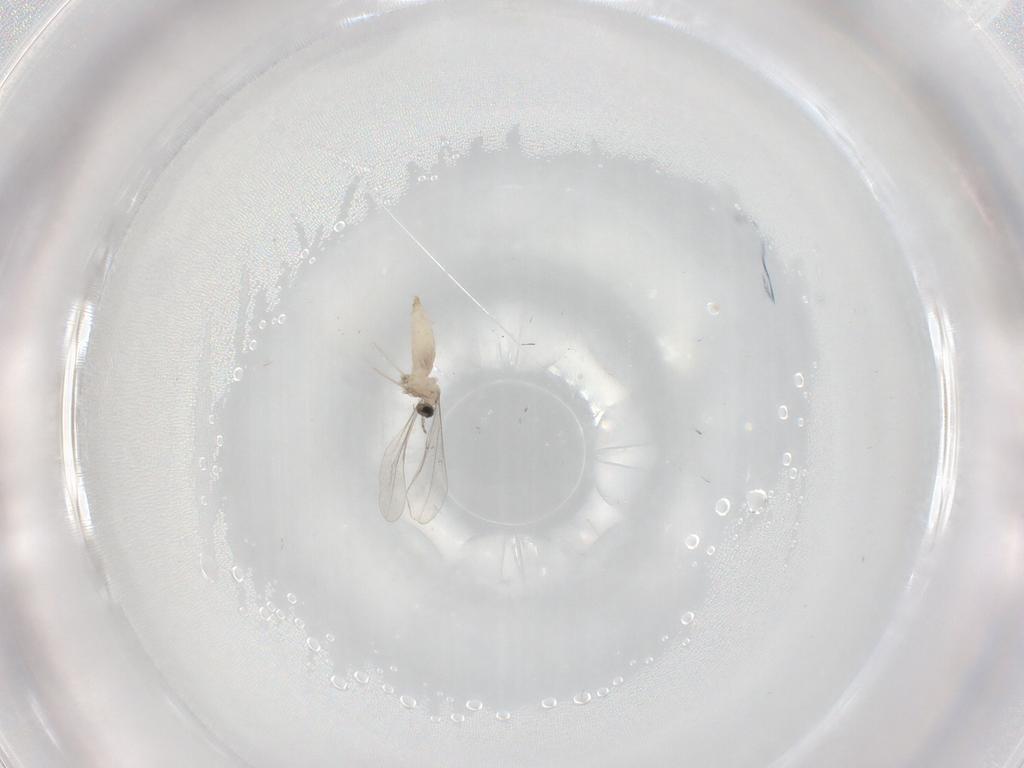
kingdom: Animalia
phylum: Arthropoda
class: Insecta
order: Diptera
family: Cecidomyiidae
